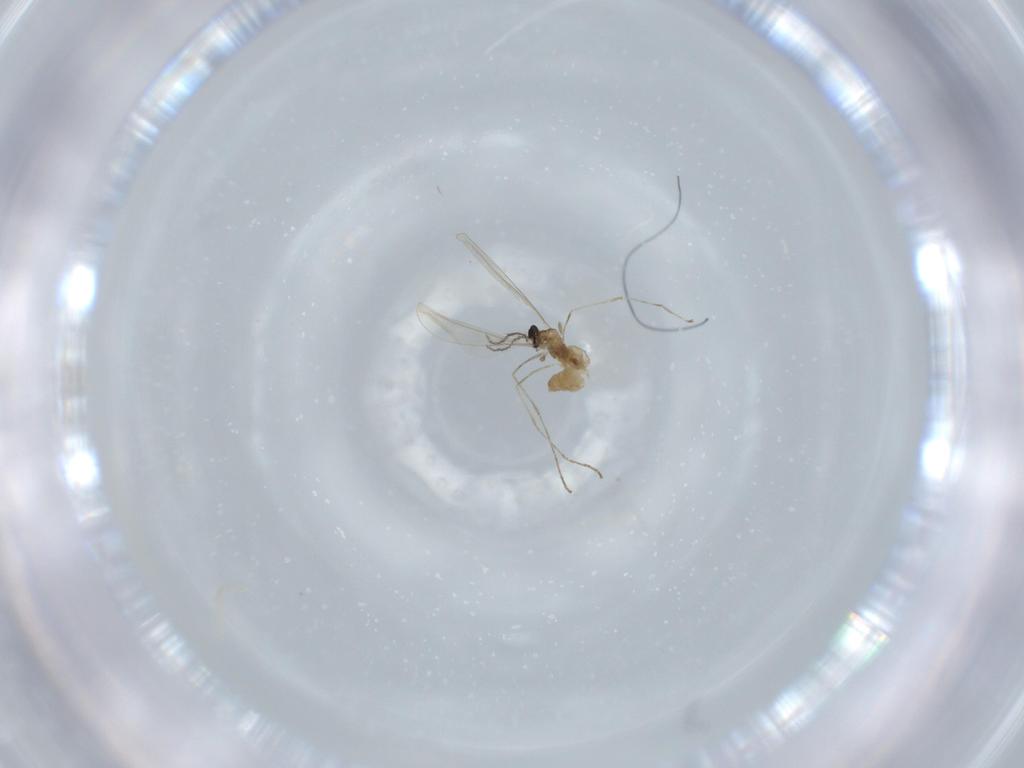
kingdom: Animalia
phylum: Arthropoda
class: Insecta
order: Diptera
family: Cecidomyiidae
